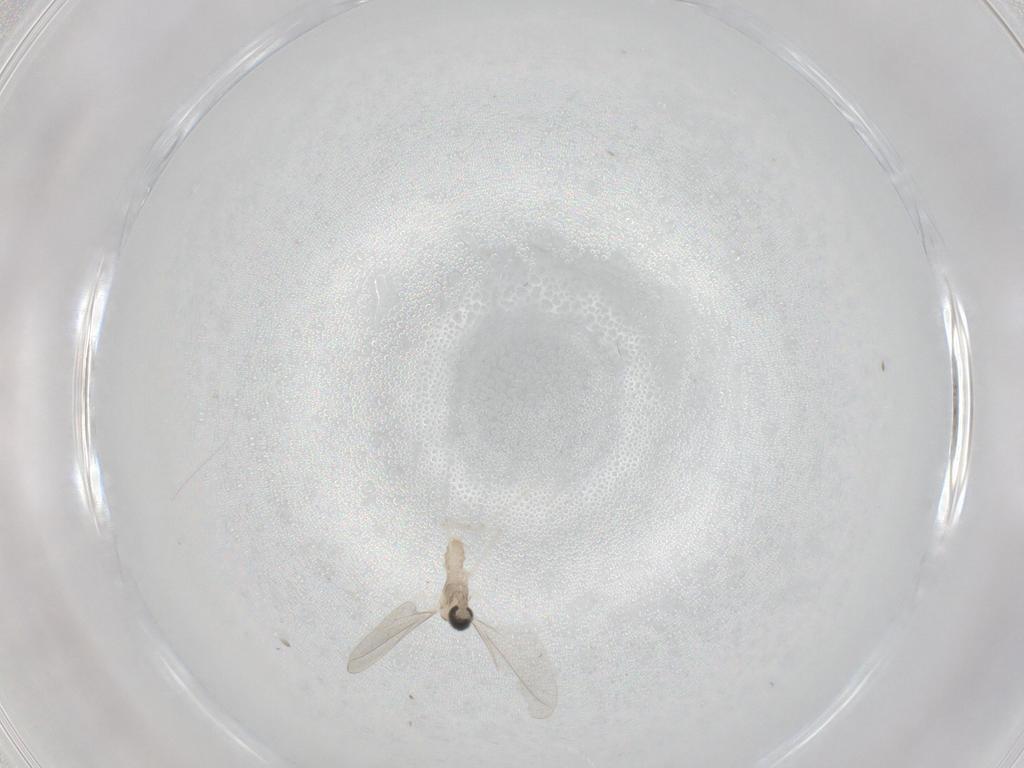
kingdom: Animalia
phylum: Arthropoda
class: Insecta
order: Diptera
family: Cecidomyiidae
